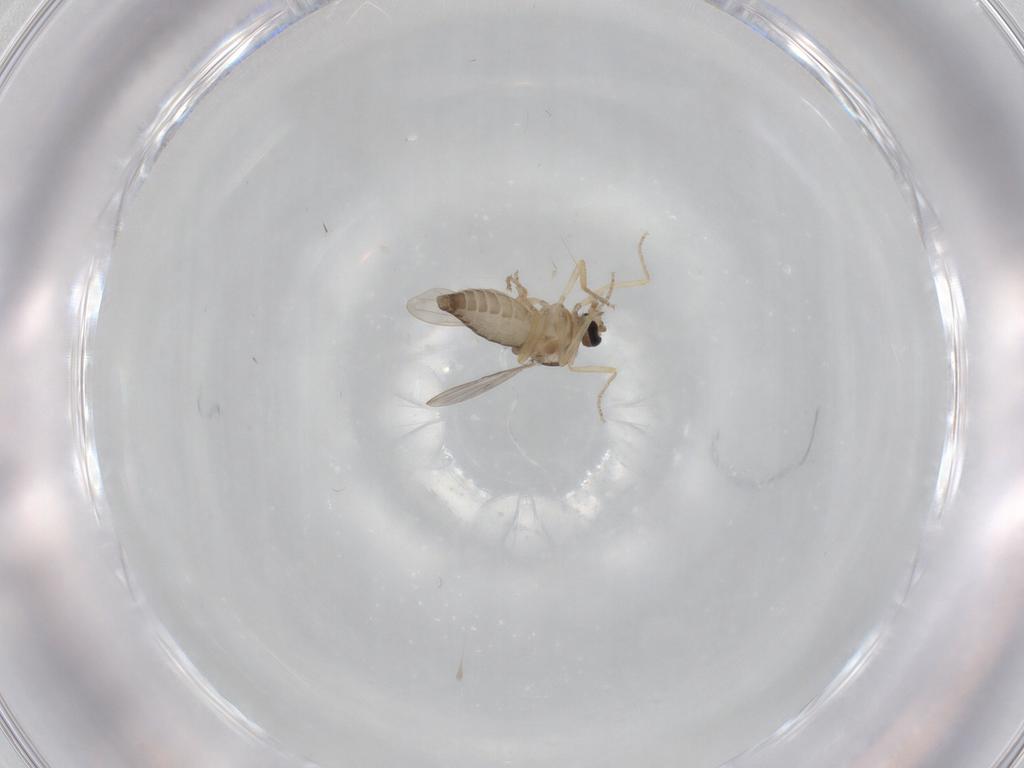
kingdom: Animalia
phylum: Arthropoda
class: Insecta
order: Diptera
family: Ceratopogonidae
